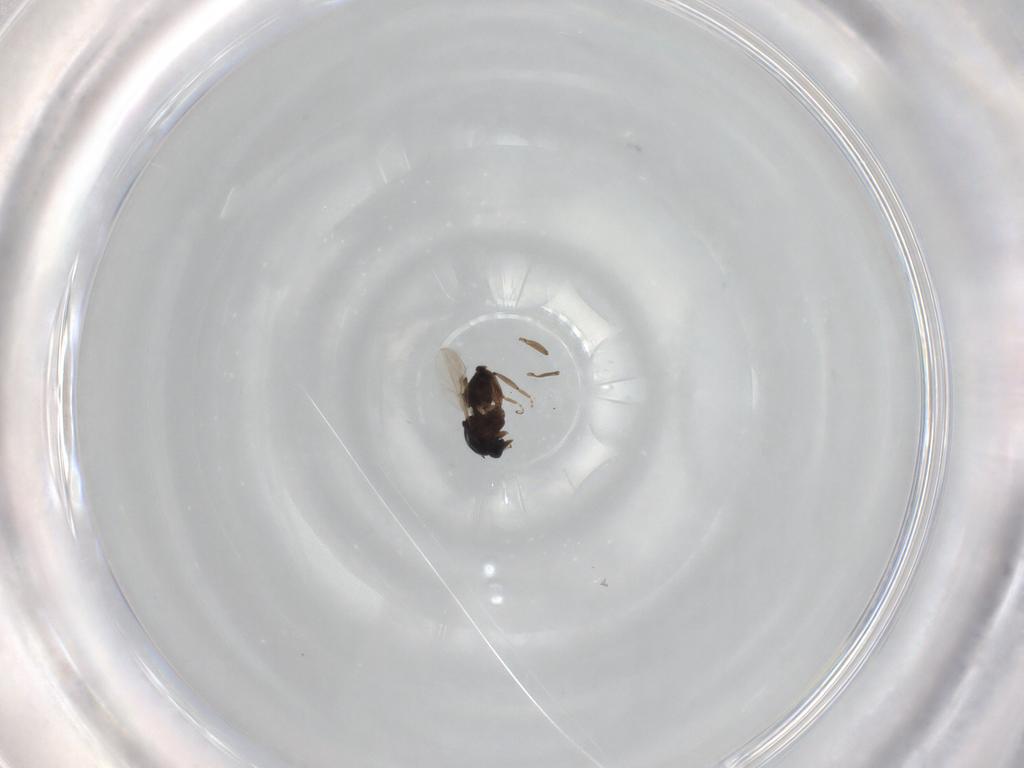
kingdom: Animalia
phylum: Arthropoda
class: Insecta
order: Diptera
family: Ceratopogonidae
